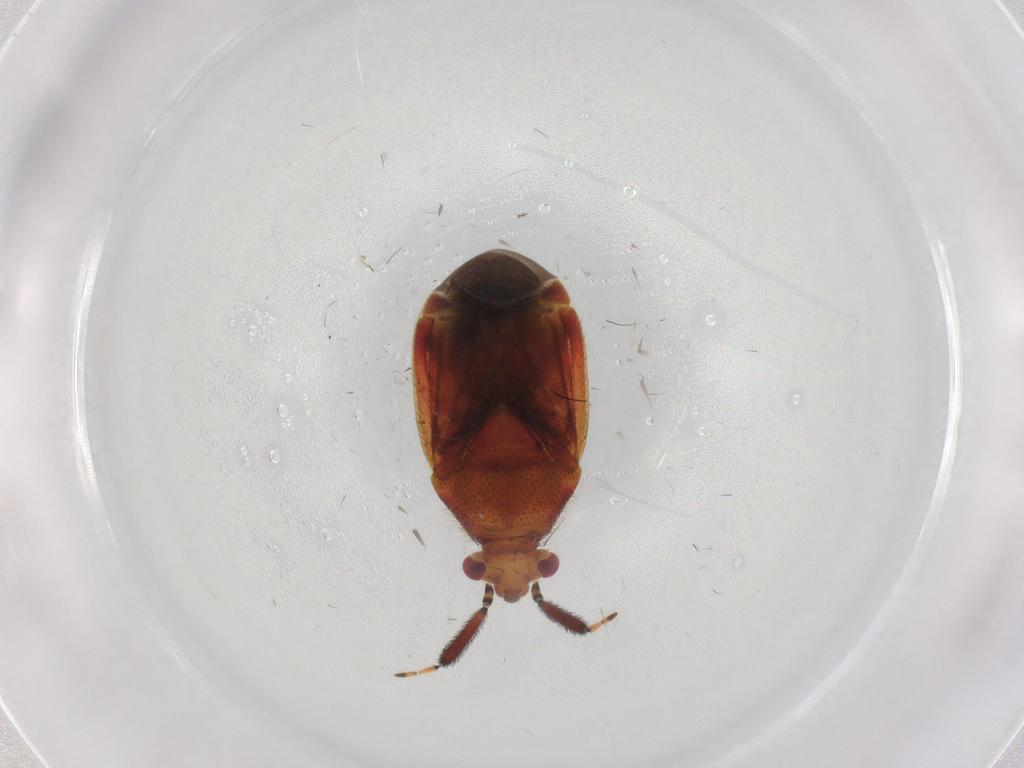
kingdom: Animalia
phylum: Arthropoda
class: Insecta
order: Hemiptera
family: Miridae
